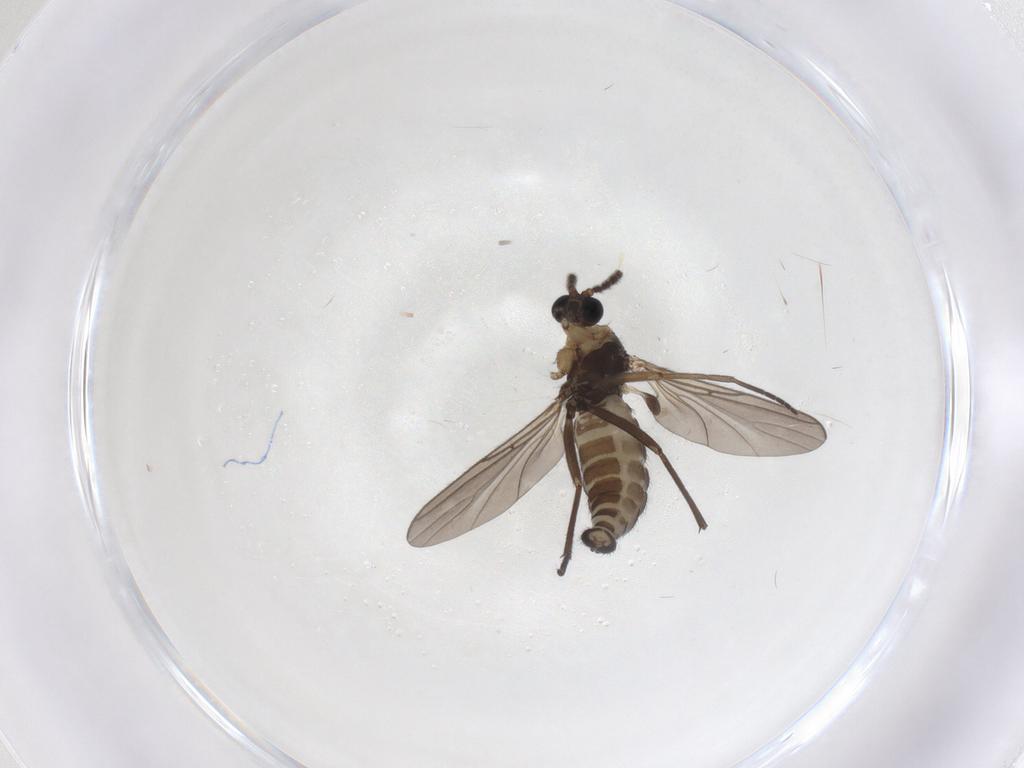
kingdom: Animalia
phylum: Arthropoda
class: Insecta
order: Diptera
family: Sciaridae
